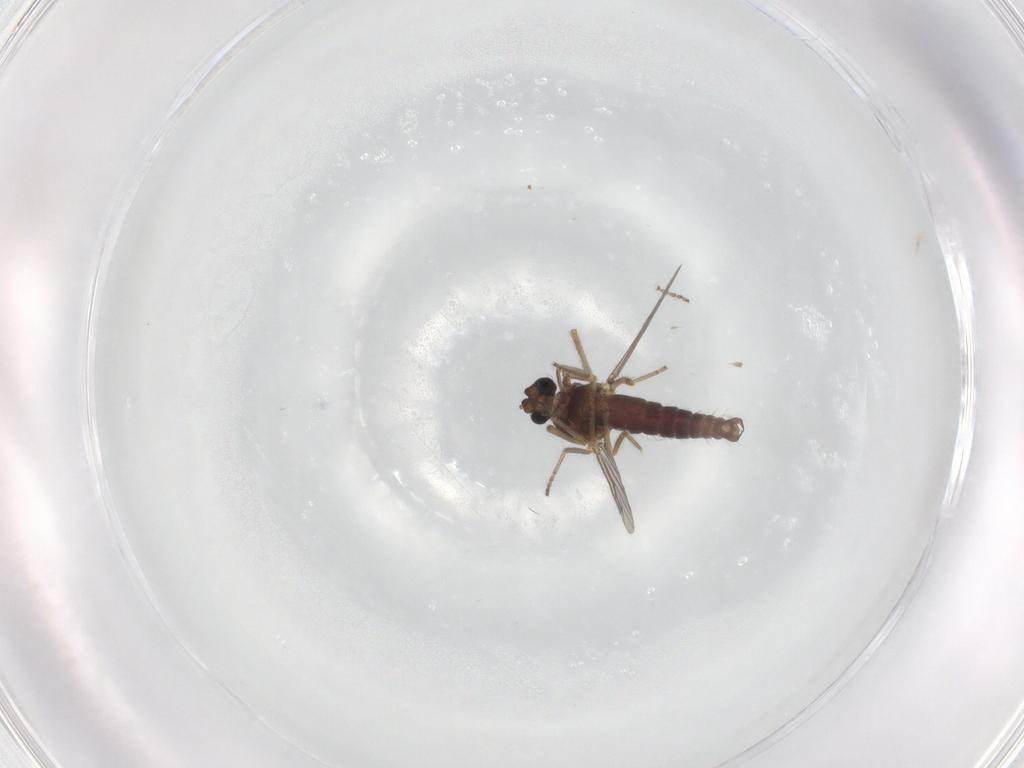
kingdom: Animalia
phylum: Arthropoda
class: Insecta
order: Diptera
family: Ceratopogonidae
